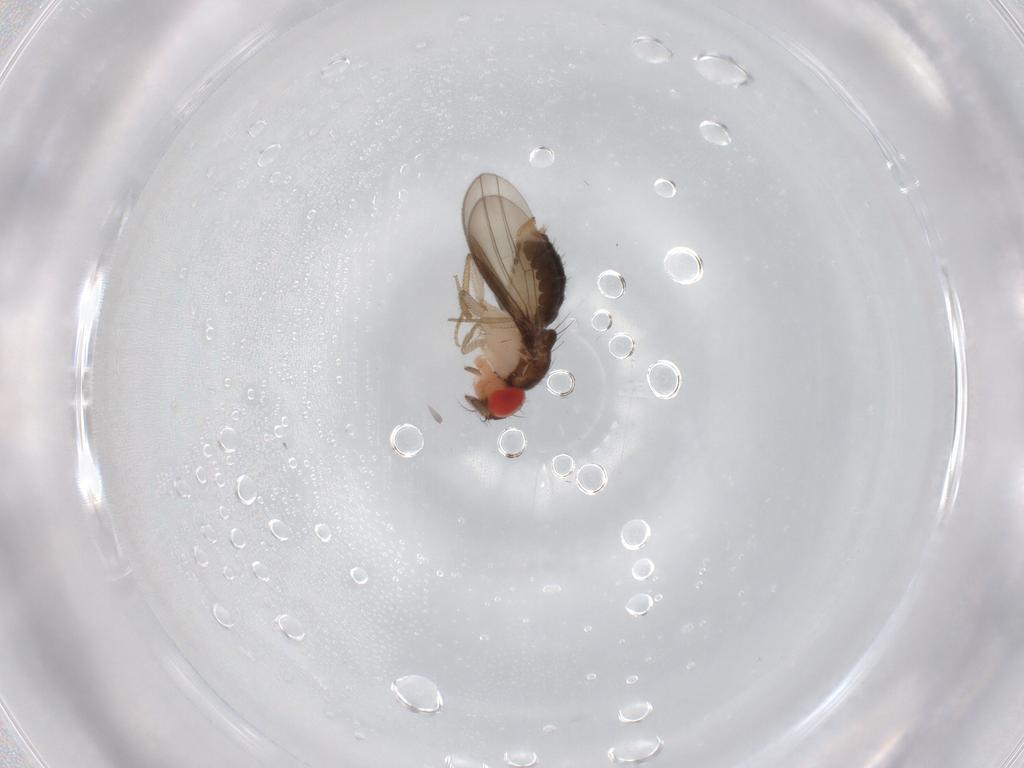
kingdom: Animalia
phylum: Arthropoda
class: Insecta
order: Diptera
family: Drosophilidae
